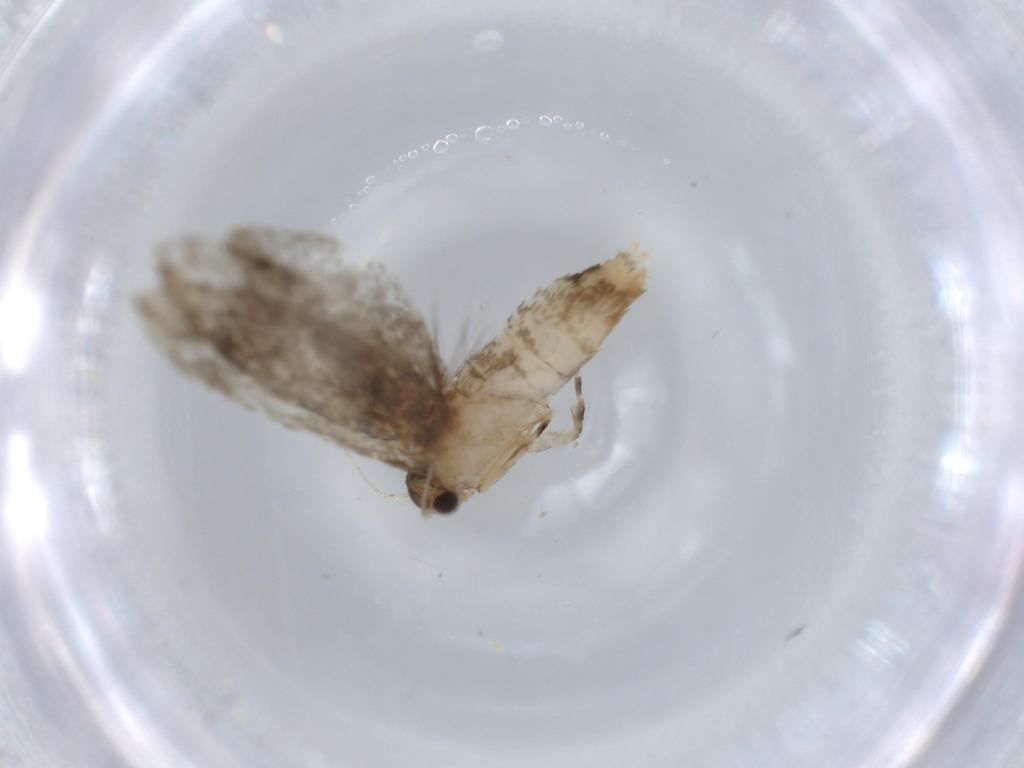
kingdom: Animalia
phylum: Arthropoda
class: Insecta
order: Lepidoptera
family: Tineidae
